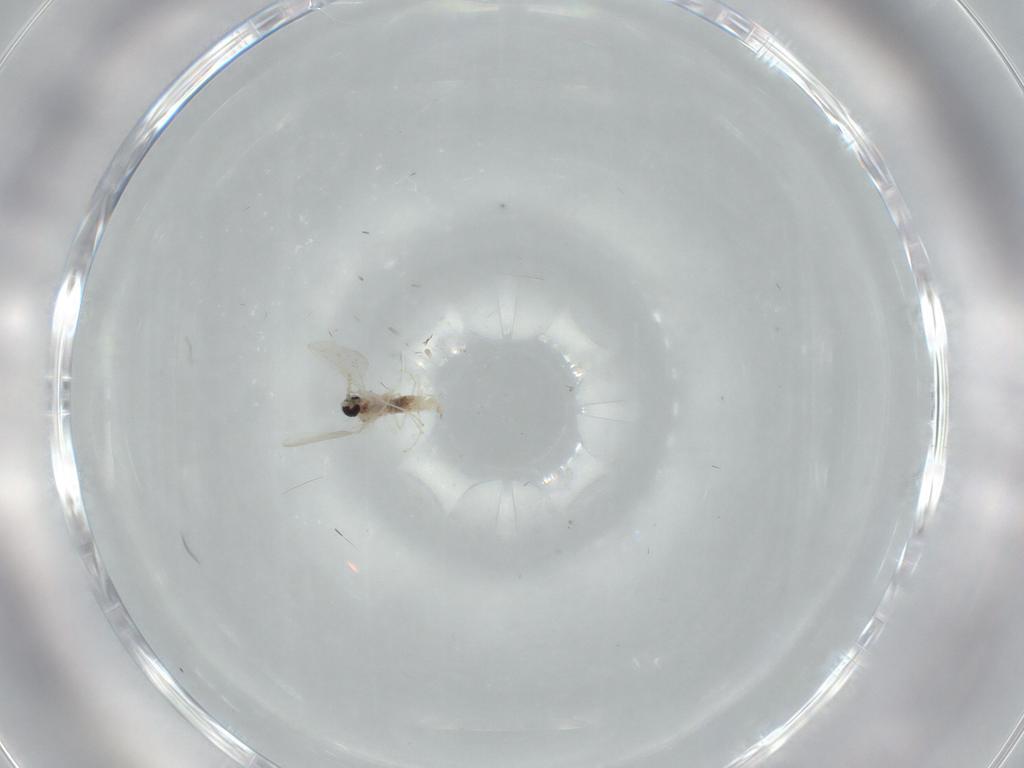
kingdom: Animalia
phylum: Arthropoda
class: Insecta
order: Diptera
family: Cecidomyiidae
